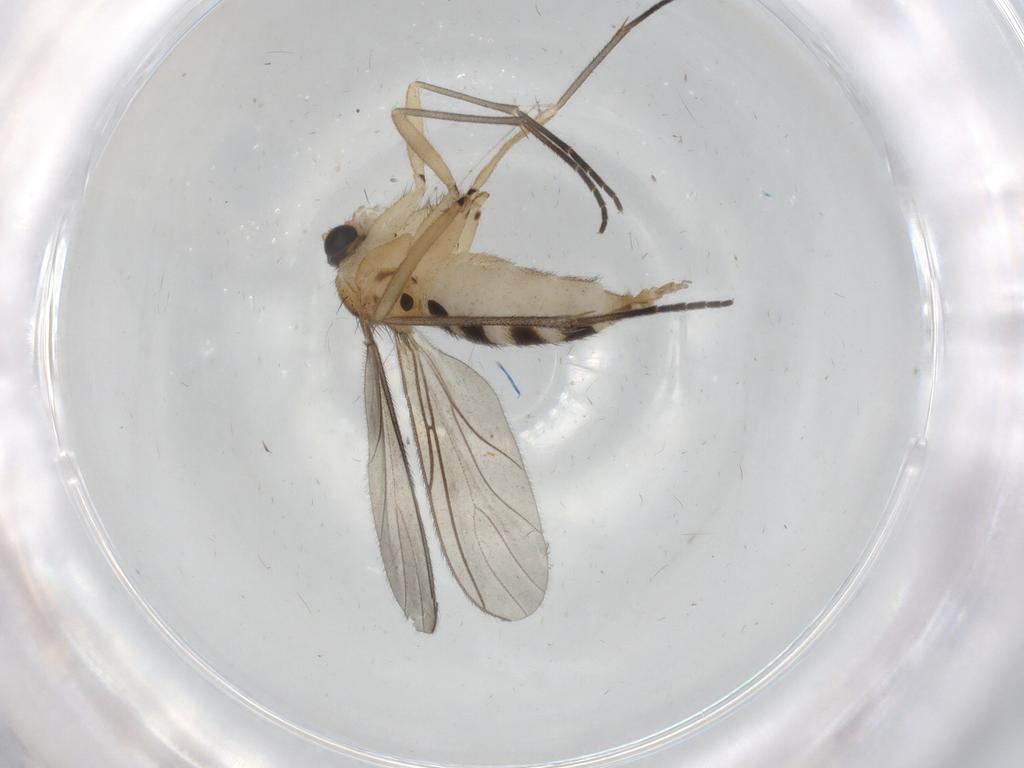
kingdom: Animalia
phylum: Arthropoda
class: Insecta
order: Diptera
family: Sciaridae
